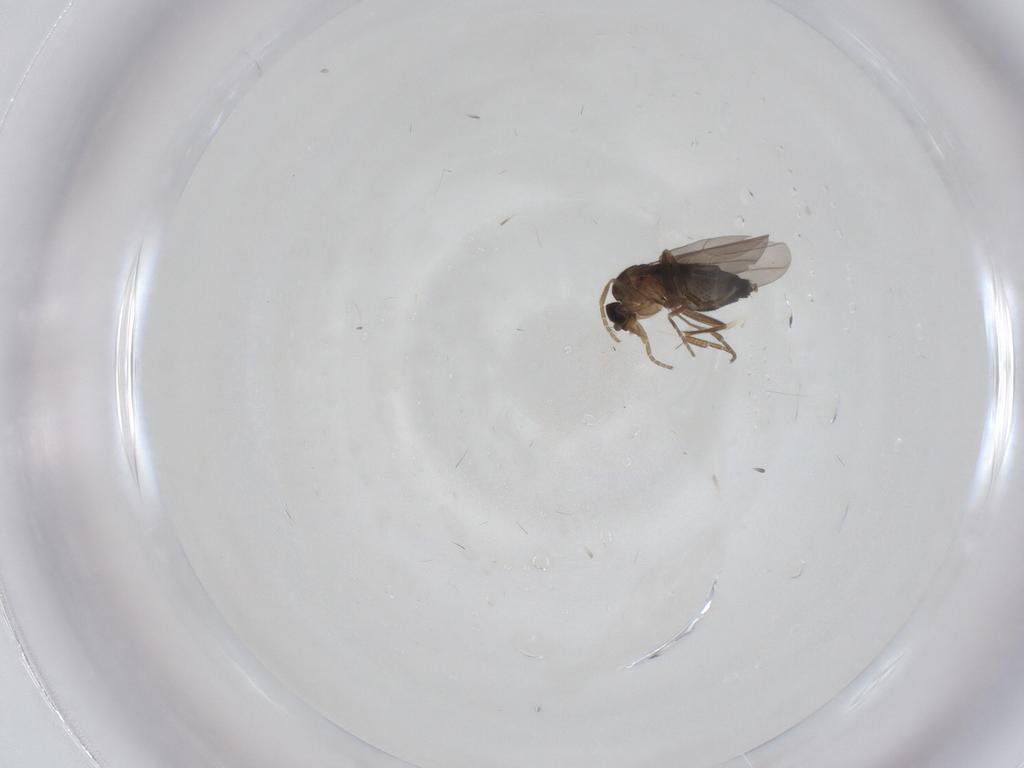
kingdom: Animalia
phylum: Arthropoda
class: Insecta
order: Diptera
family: Phoridae
